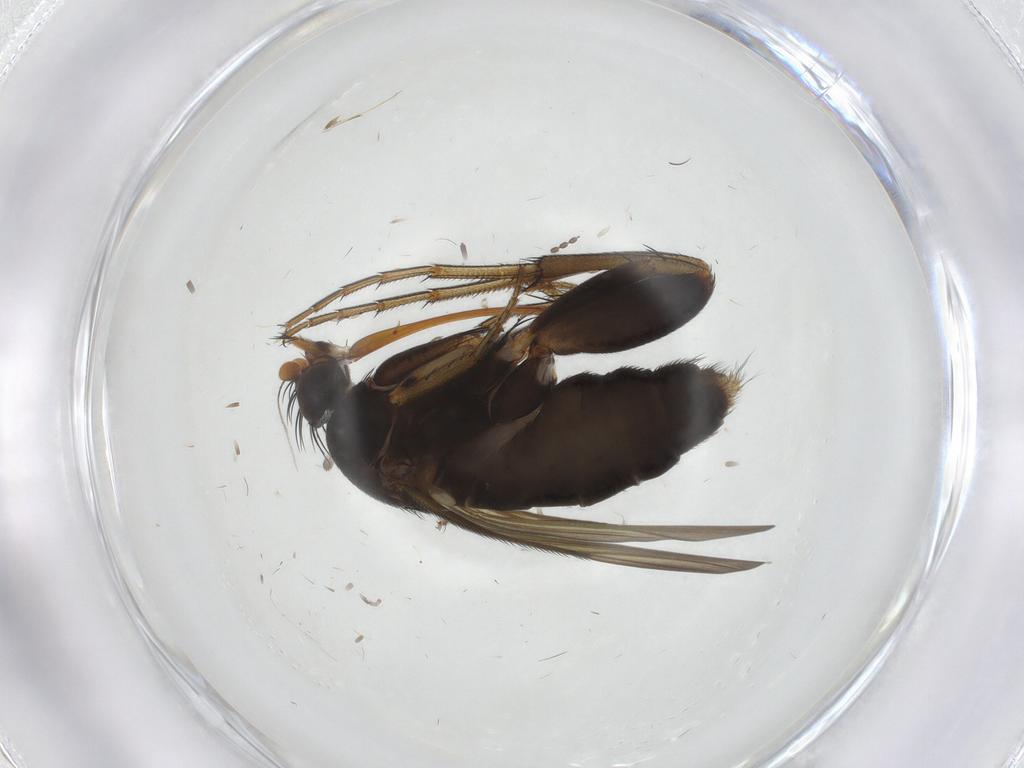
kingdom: Animalia
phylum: Arthropoda
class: Insecta
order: Diptera
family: Phoridae
